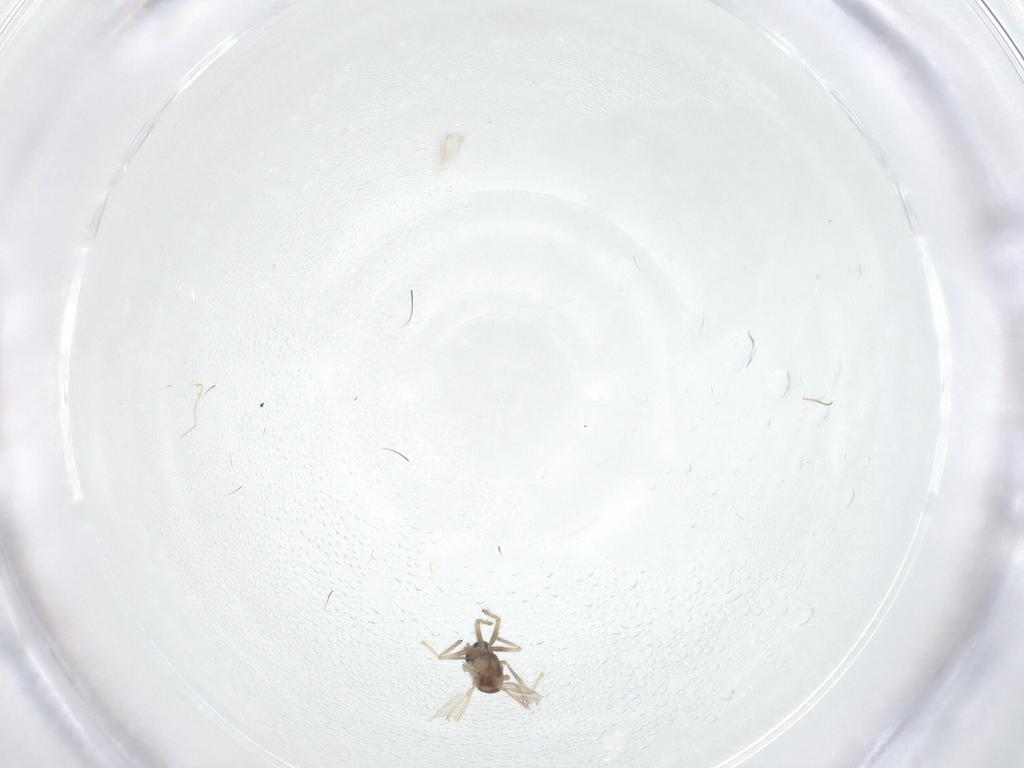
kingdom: Animalia
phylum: Arthropoda
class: Insecta
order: Diptera
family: Chironomidae
